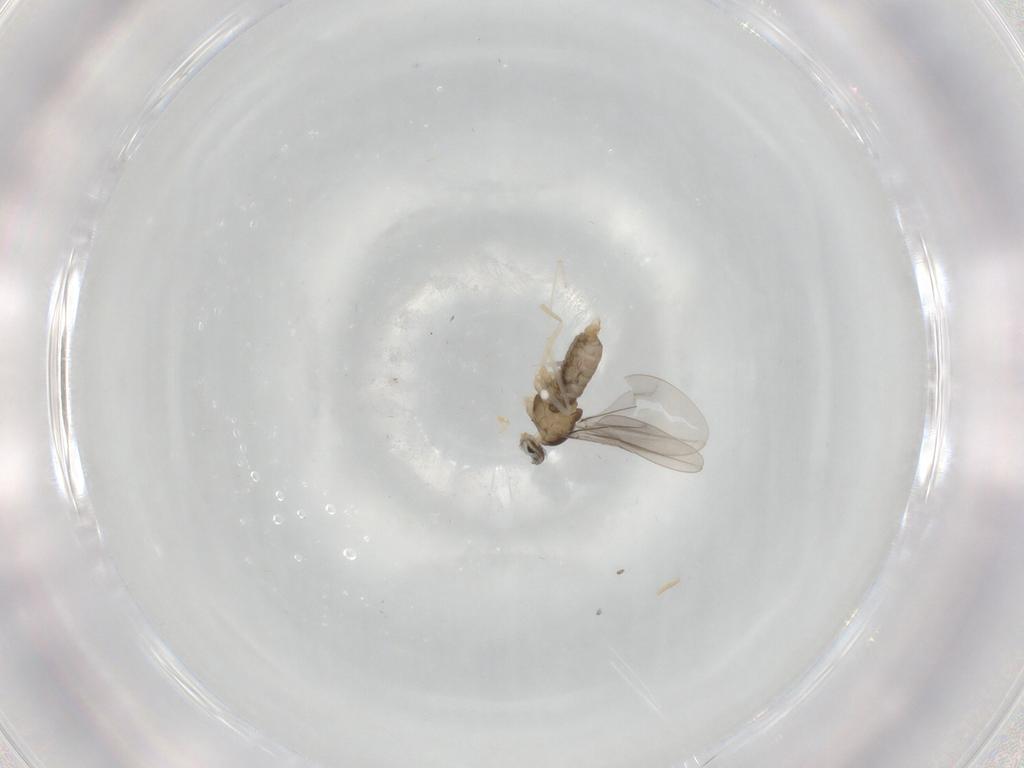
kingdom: Animalia
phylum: Arthropoda
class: Insecta
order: Diptera
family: Cecidomyiidae
